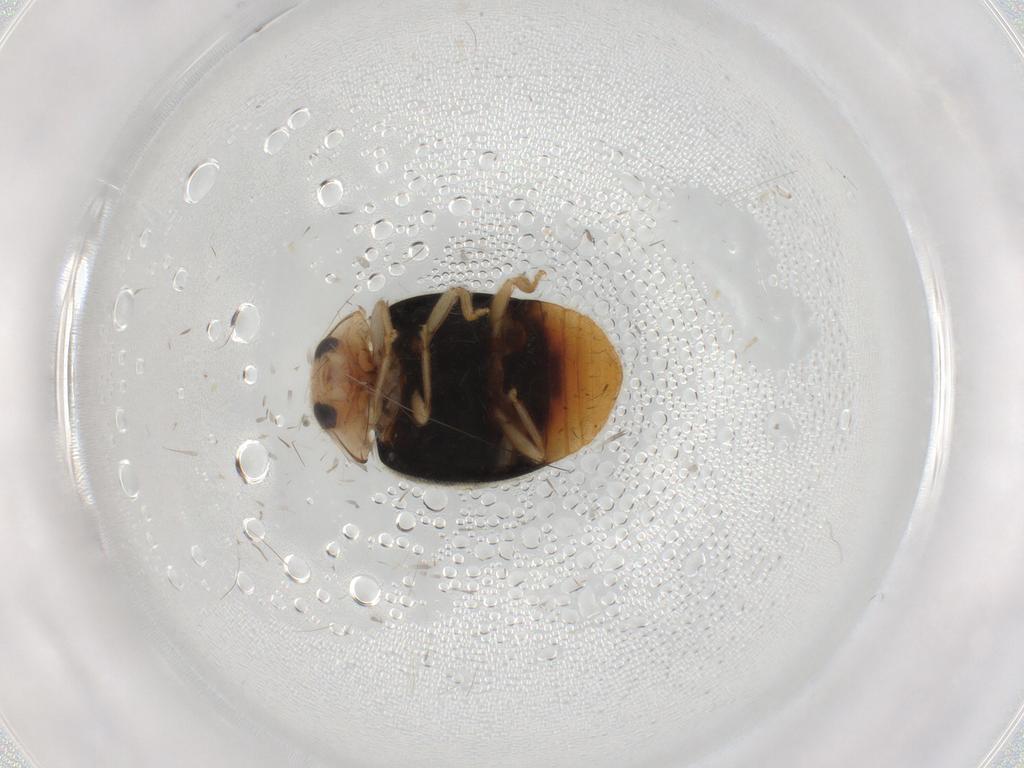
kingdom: Animalia
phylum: Arthropoda
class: Insecta
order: Coleoptera
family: Coccinellidae
